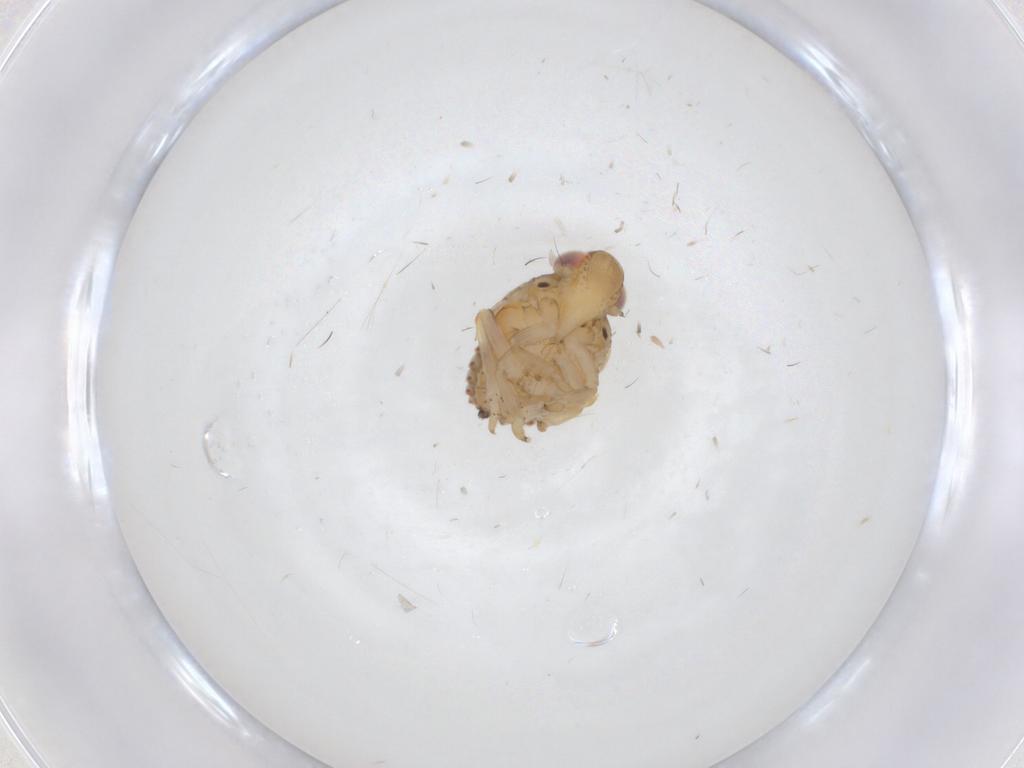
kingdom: Animalia
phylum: Arthropoda
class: Insecta
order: Hemiptera
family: Issidae
